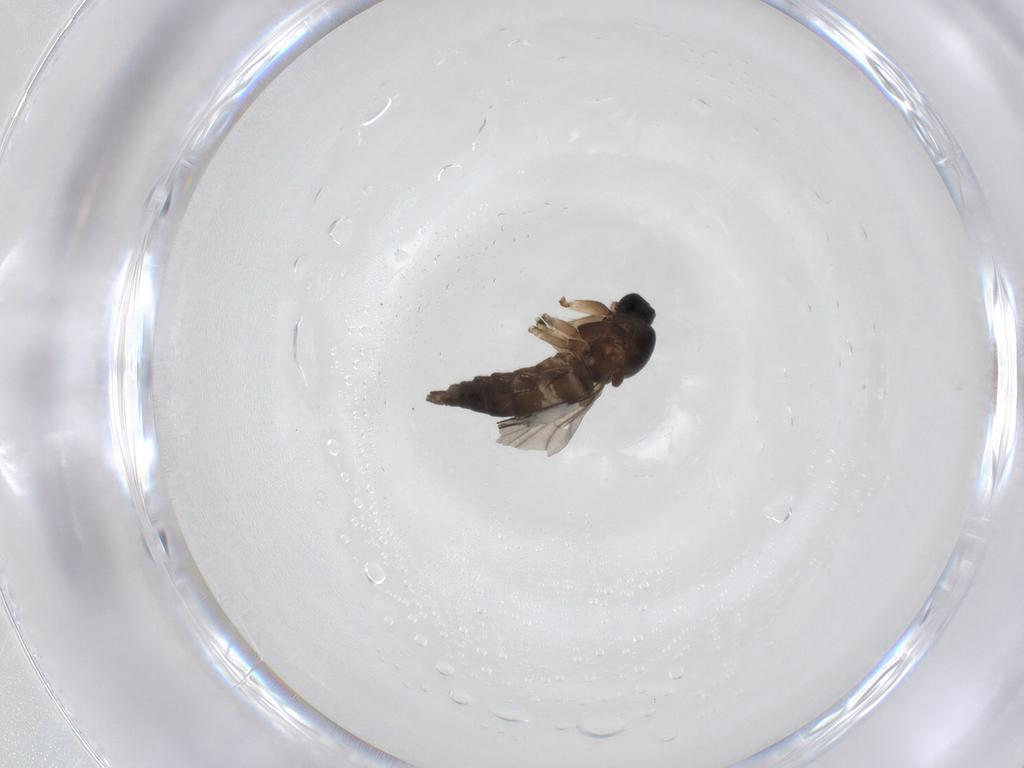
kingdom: Animalia
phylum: Arthropoda
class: Insecta
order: Diptera
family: Sciaridae
